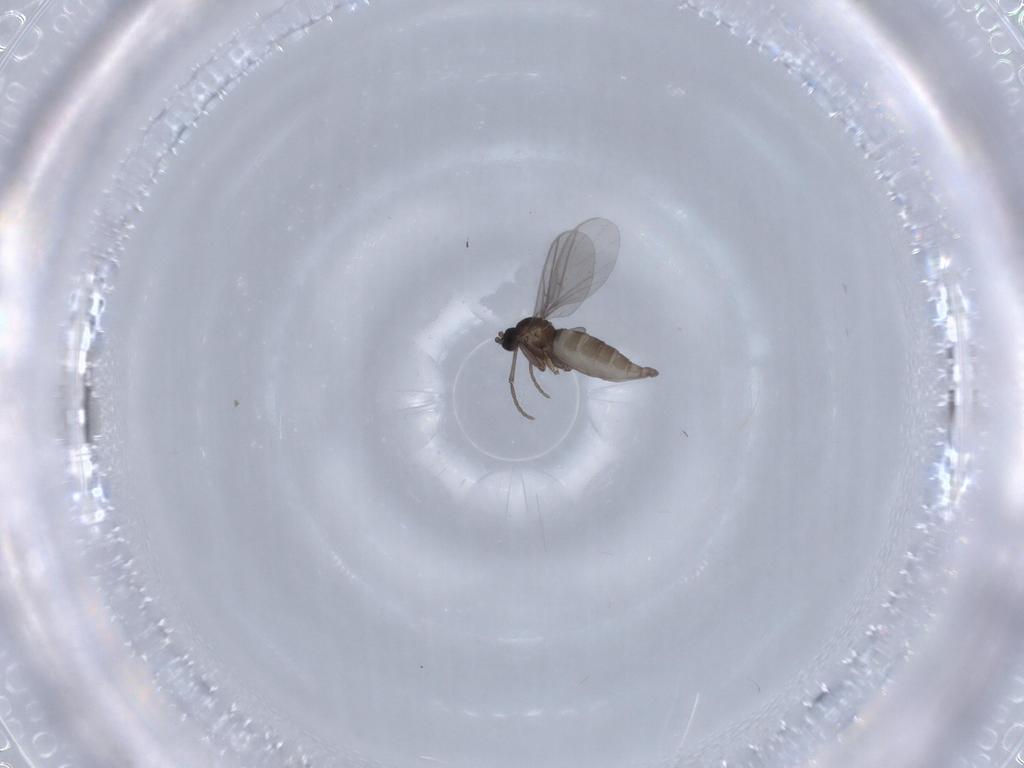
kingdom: Animalia
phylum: Arthropoda
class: Insecta
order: Diptera
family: Sciaridae
